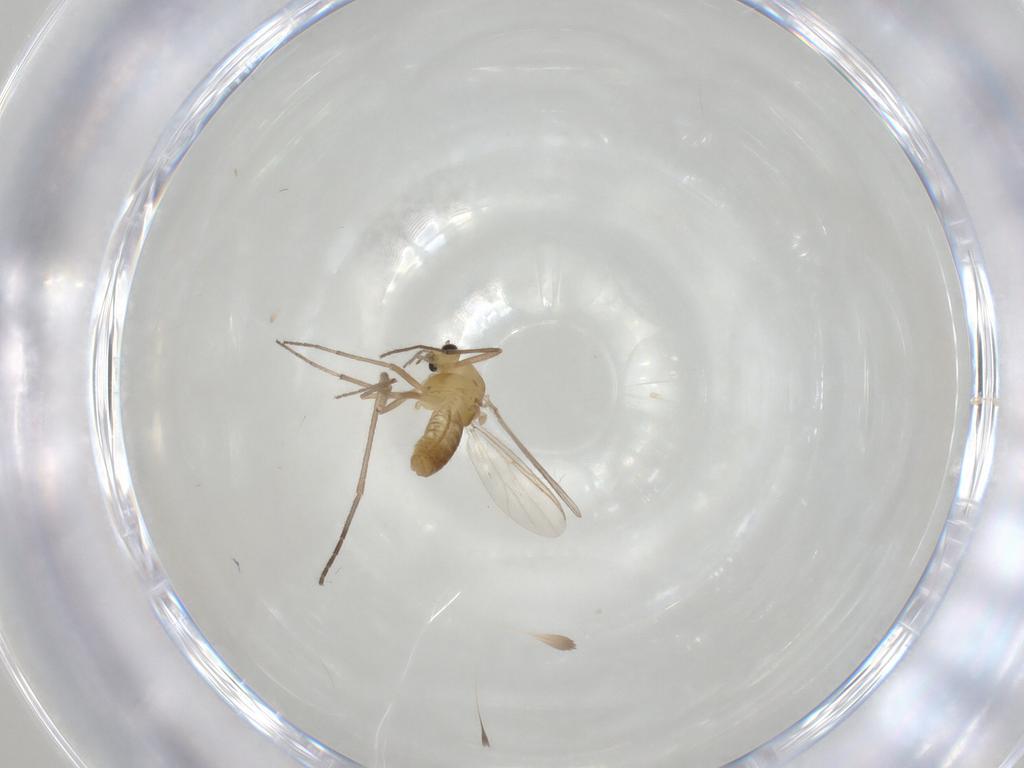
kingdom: Animalia
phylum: Arthropoda
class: Insecta
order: Diptera
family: Chironomidae
